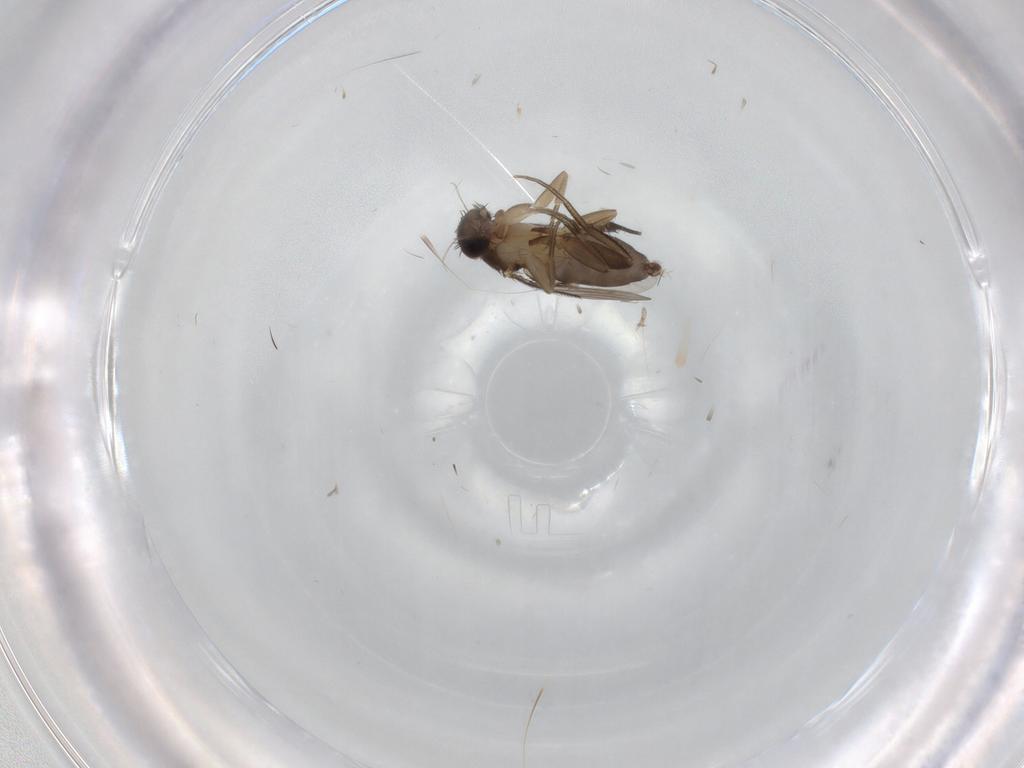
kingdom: Animalia
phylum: Arthropoda
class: Insecta
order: Diptera
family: Phoridae
